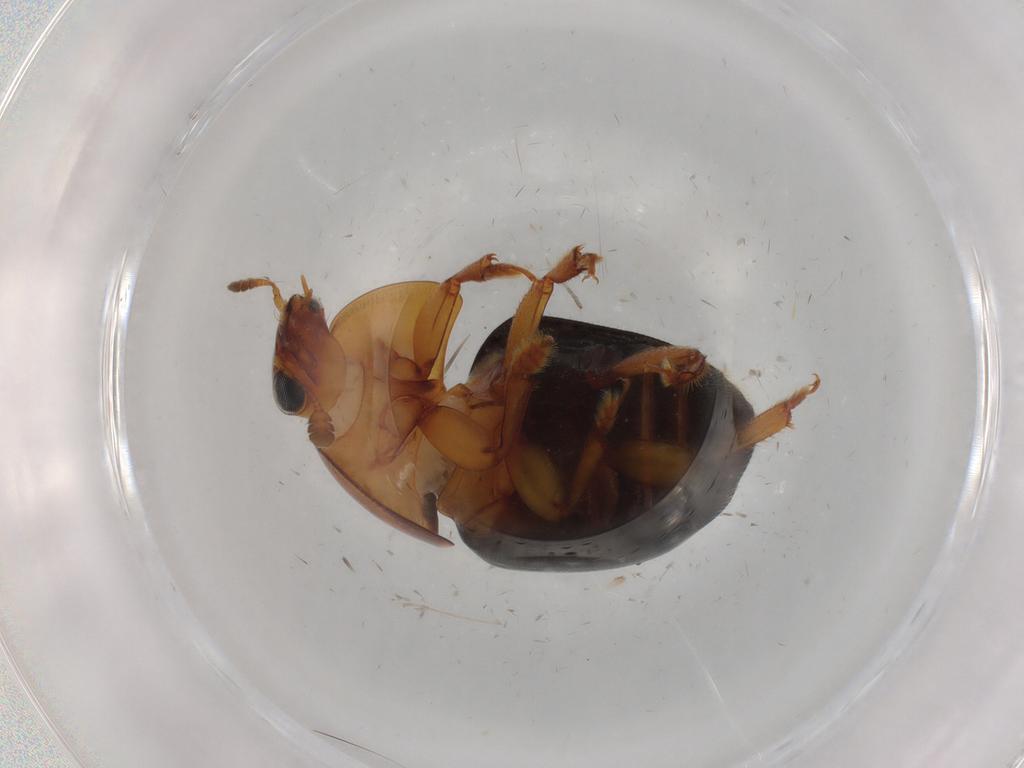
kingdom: Animalia
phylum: Arthropoda
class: Insecta
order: Coleoptera
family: Nitidulidae
